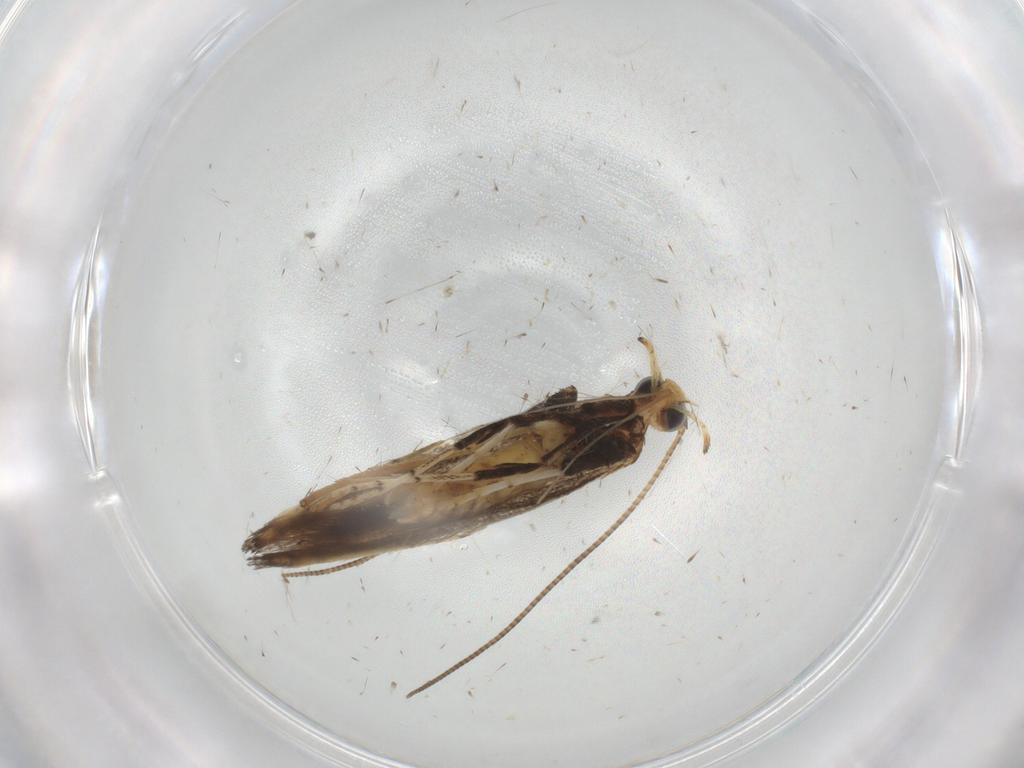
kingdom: Animalia
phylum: Arthropoda
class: Insecta
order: Lepidoptera
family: Gracillariidae
